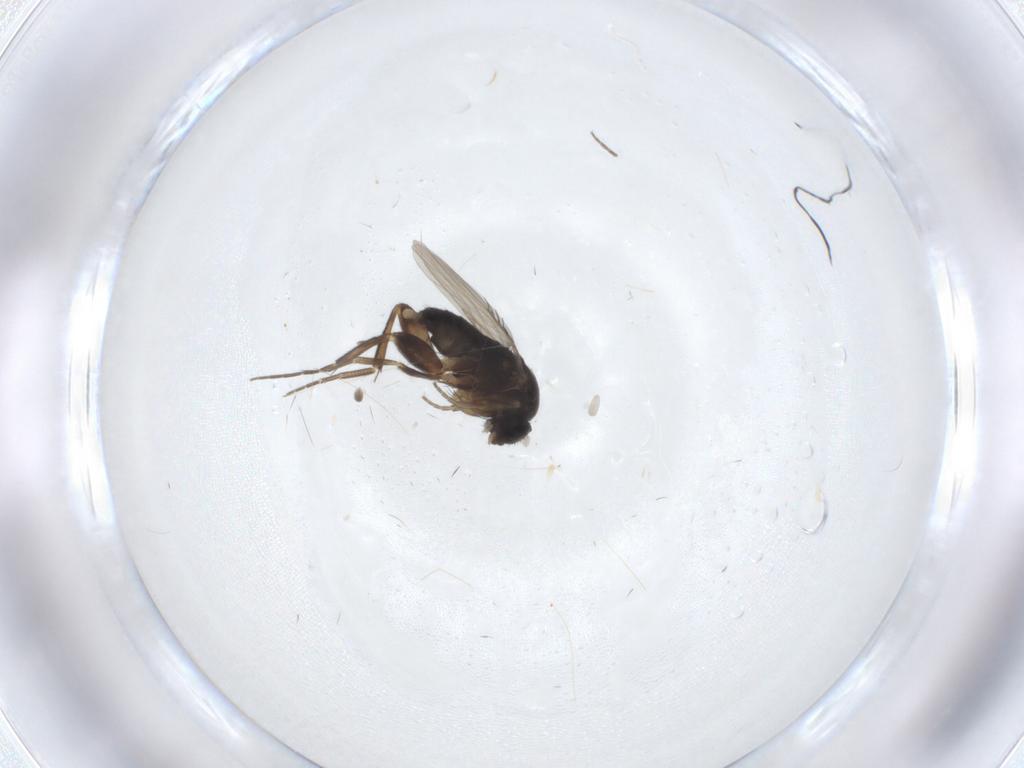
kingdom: Animalia
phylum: Arthropoda
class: Insecta
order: Diptera
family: Phoridae
